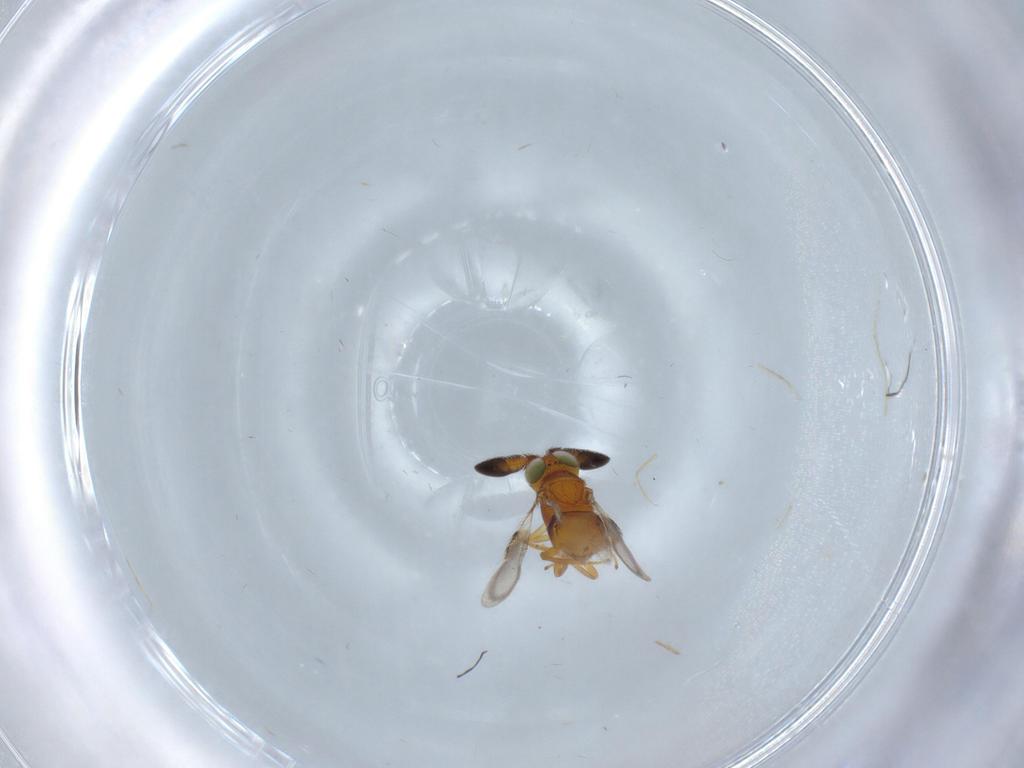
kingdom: Animalia
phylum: Arthropoda
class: Insecta
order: Hymenoptera
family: Encyrtidae
